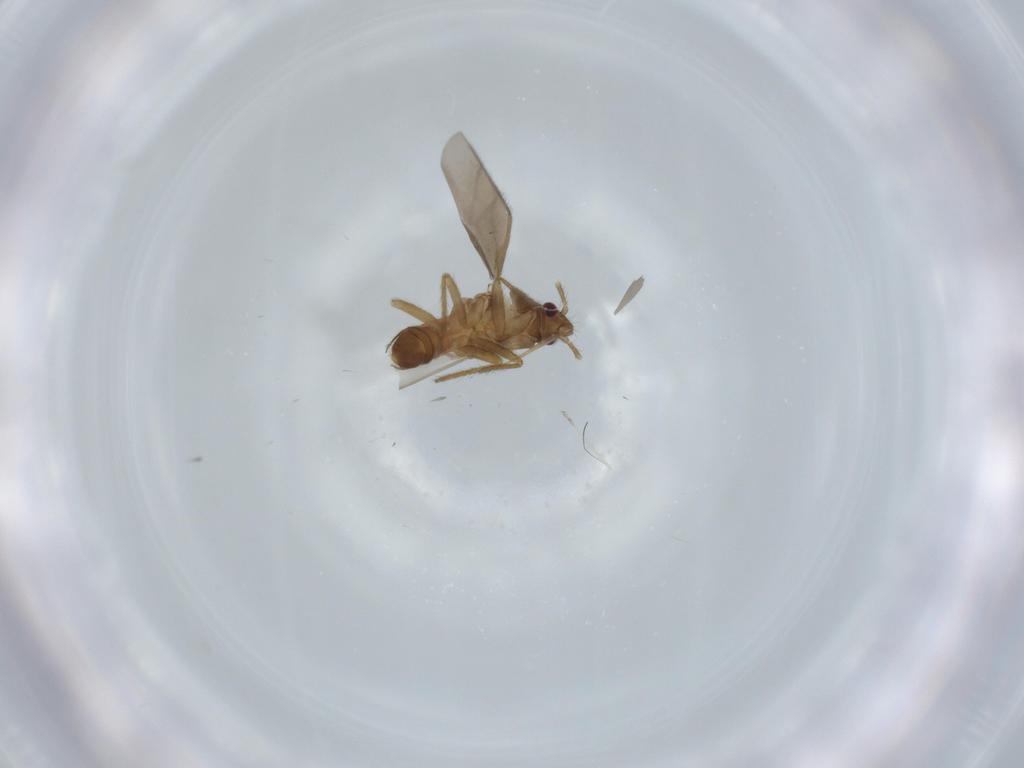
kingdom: Animalia
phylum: Arthropoda
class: Insecta
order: Hemiptera
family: Ceratocombidae
